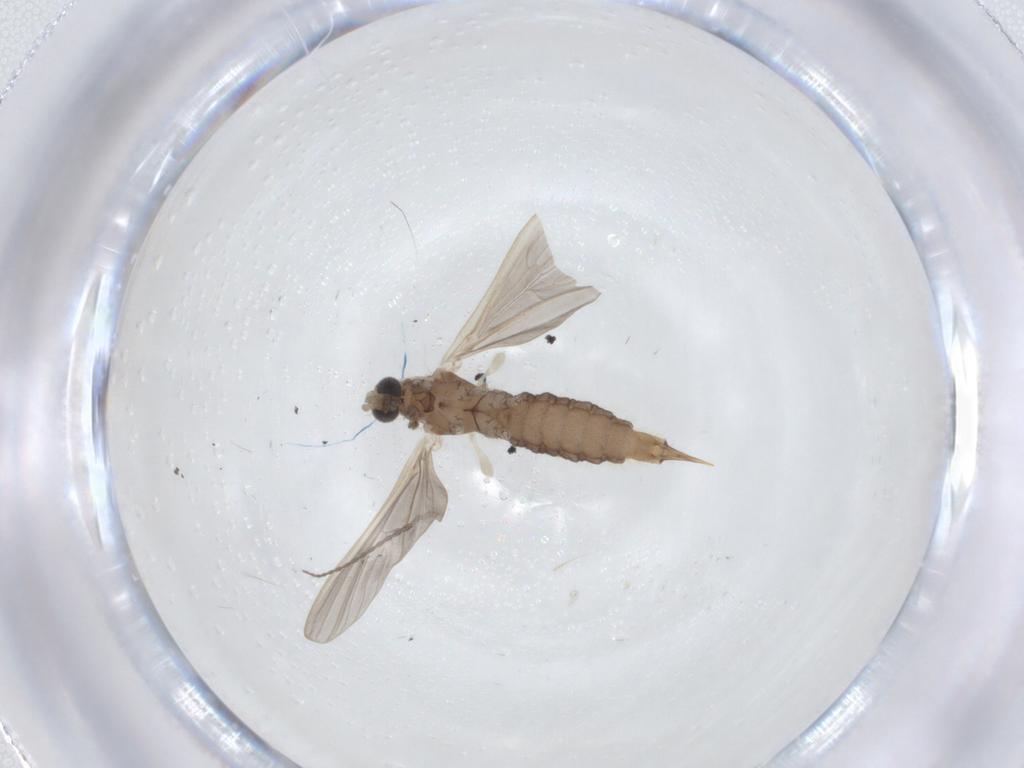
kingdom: Animalia
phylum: Arthropoda
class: Insecta
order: Diptera
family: Limoniidae
